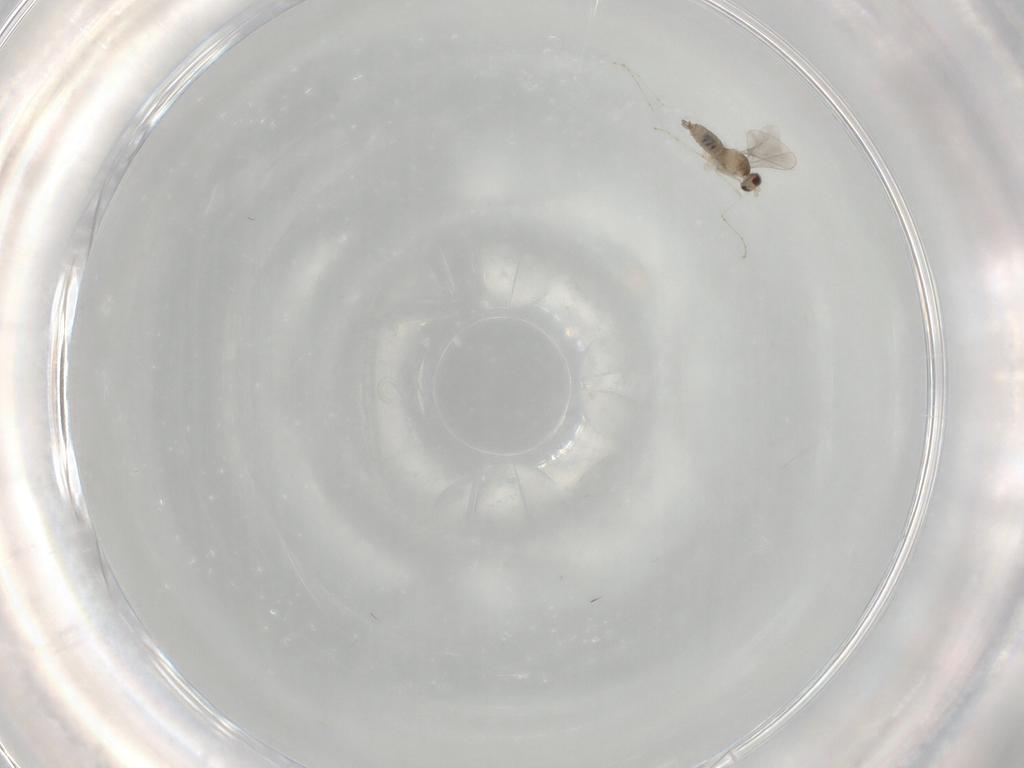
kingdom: Animalia
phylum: Arthropoda
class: Insecta
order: Diptera
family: Cecidomyiidae
